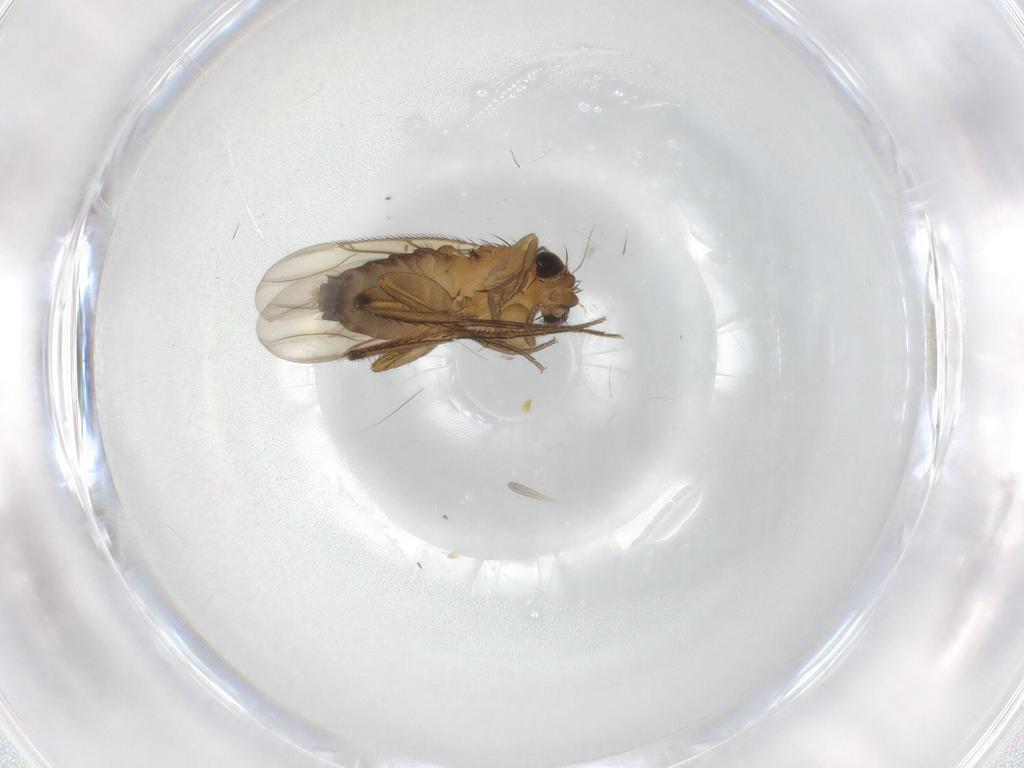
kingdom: Animalia
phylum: Arthropoda
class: Insecta
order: Diptera
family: Phoridae
